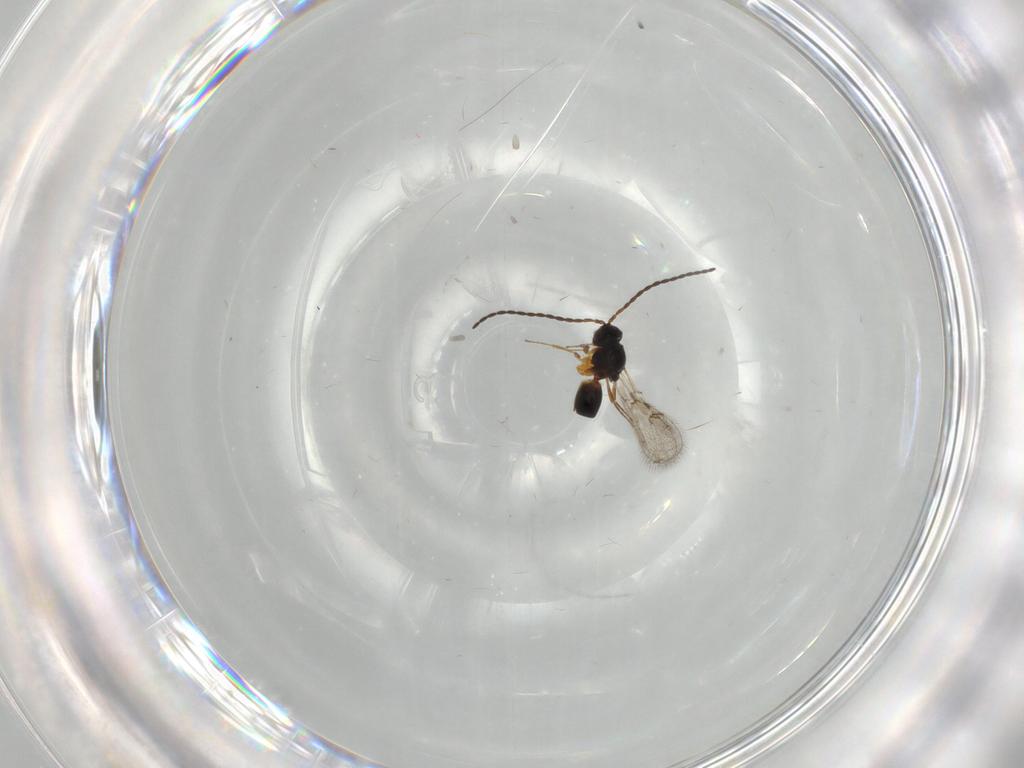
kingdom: Animalia
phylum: Arthropoda
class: Insecta
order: Hymenoptera
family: Figitidae
